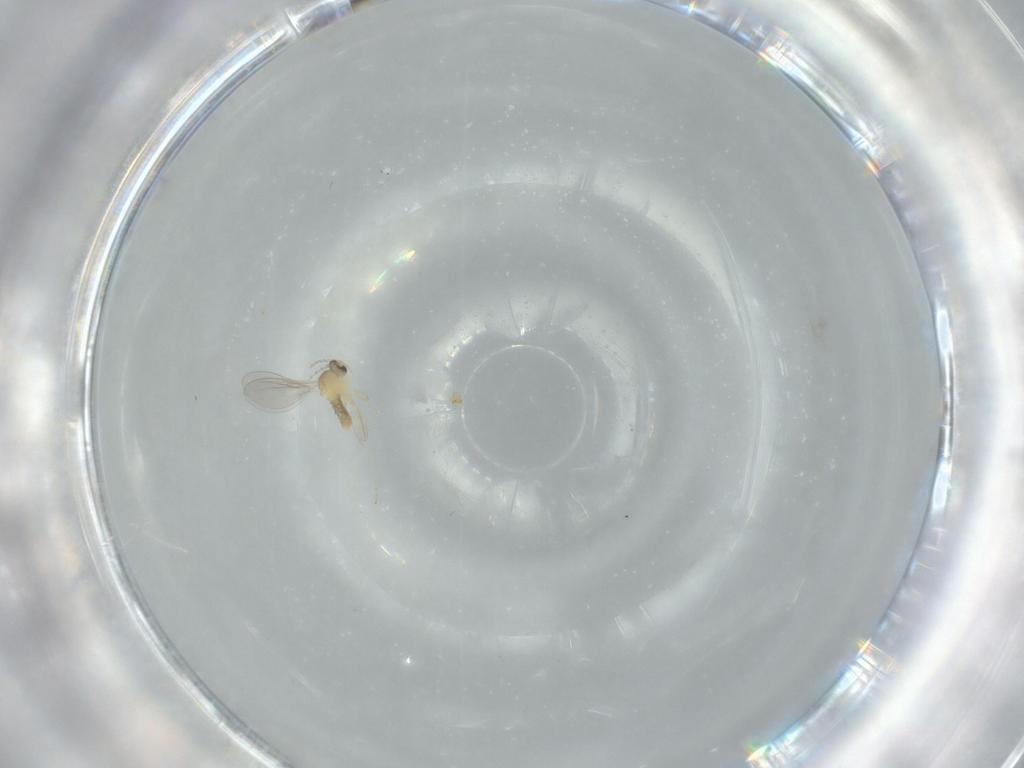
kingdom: Animalia
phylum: Arthropoda
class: Insecta
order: Diptera
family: Cecidomyiidae
